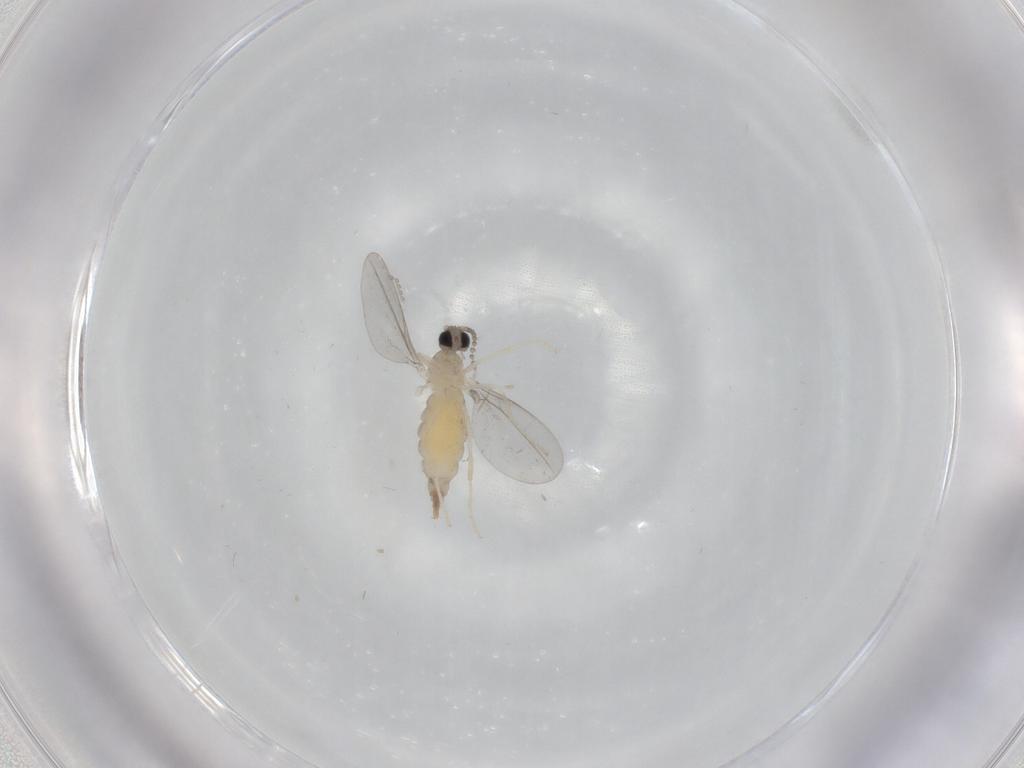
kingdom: Animalia
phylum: Arthropoda
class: Insecta
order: Diptera
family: Cecidomyiidae
